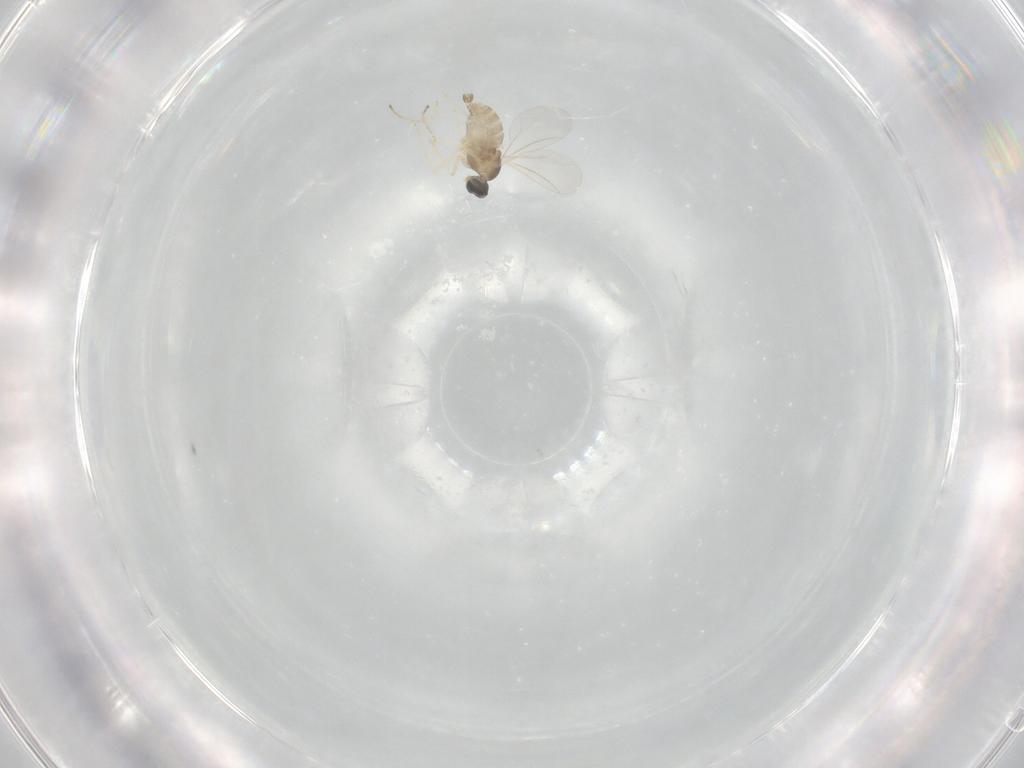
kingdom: Animalia
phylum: Arthropoda
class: Insecta
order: Diptera
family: Cecidomyiidae
